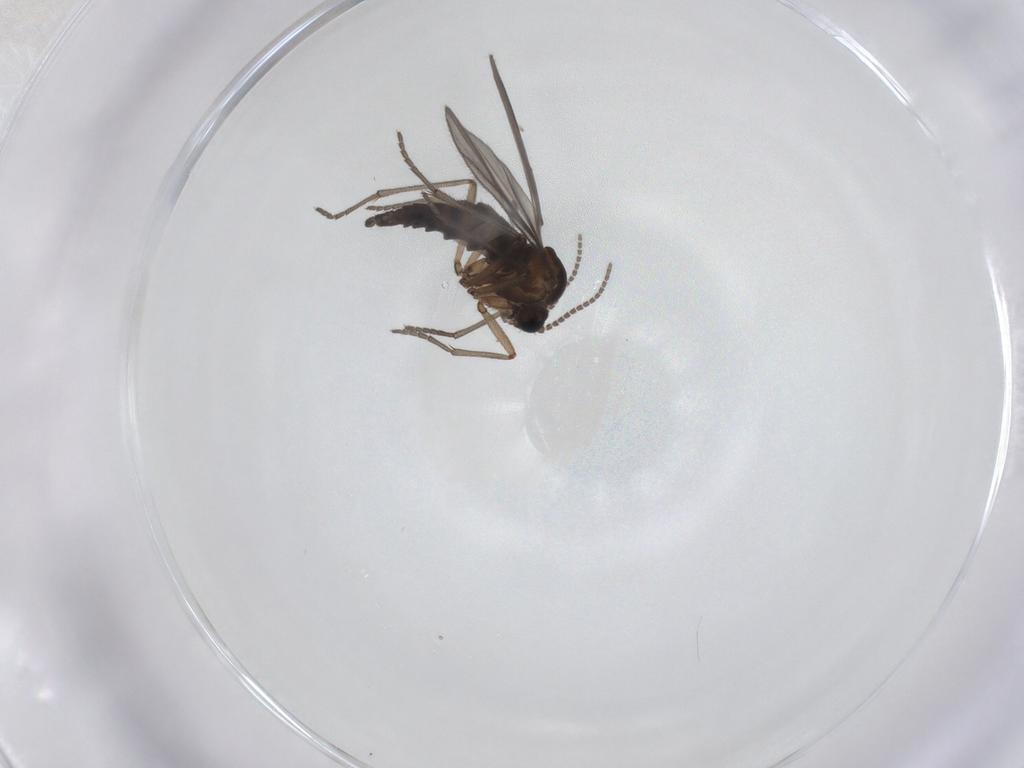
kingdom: Animalia
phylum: Arthropoda
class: Insecta
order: Diptera
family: Sciaridae
